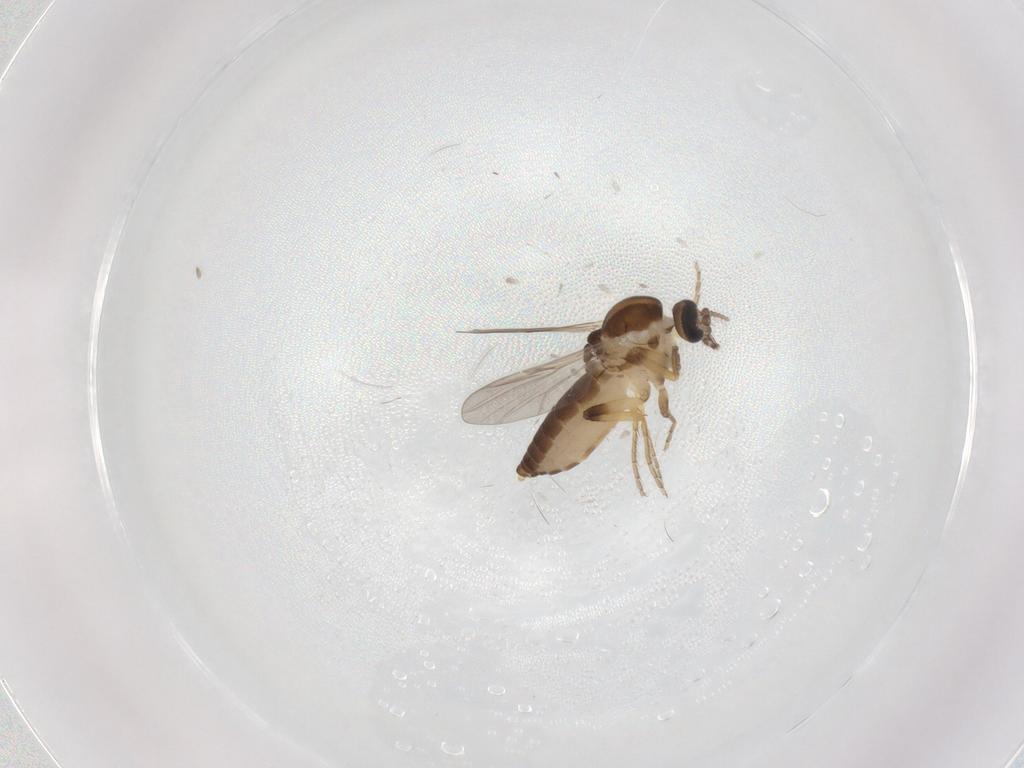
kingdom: Animalia
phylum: Arthropoda
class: Insecta
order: Diptera
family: Ceratopogonidae
